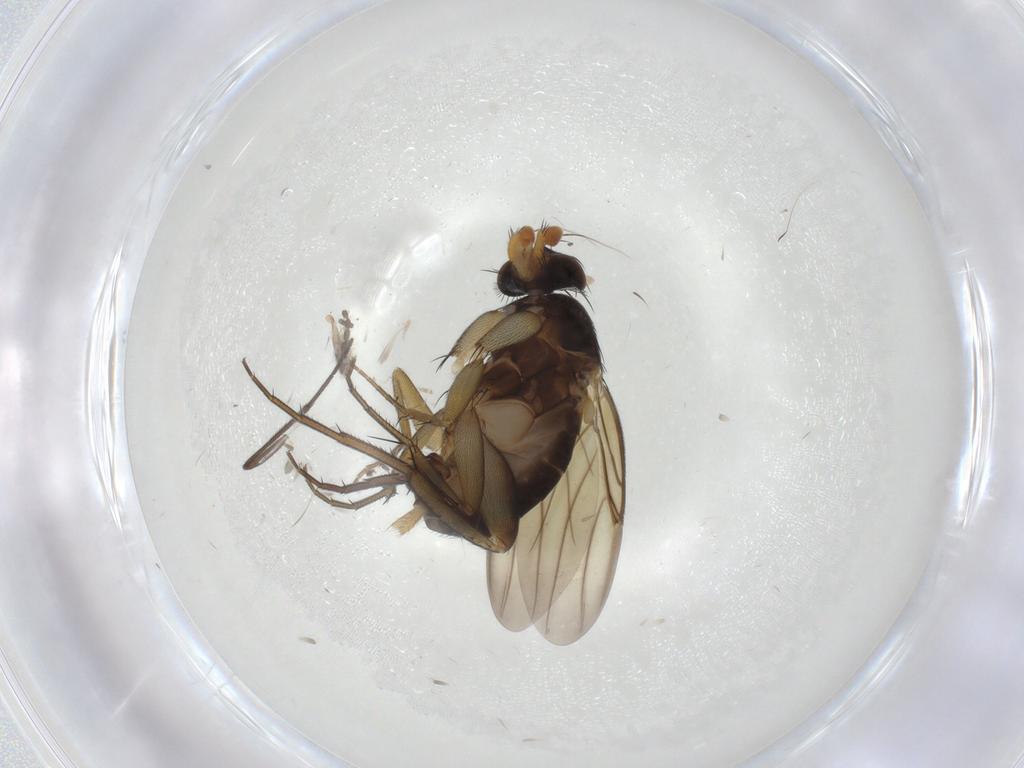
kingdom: Animalia
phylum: Arthropoda
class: Insecta
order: Diptera
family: Phoridae
